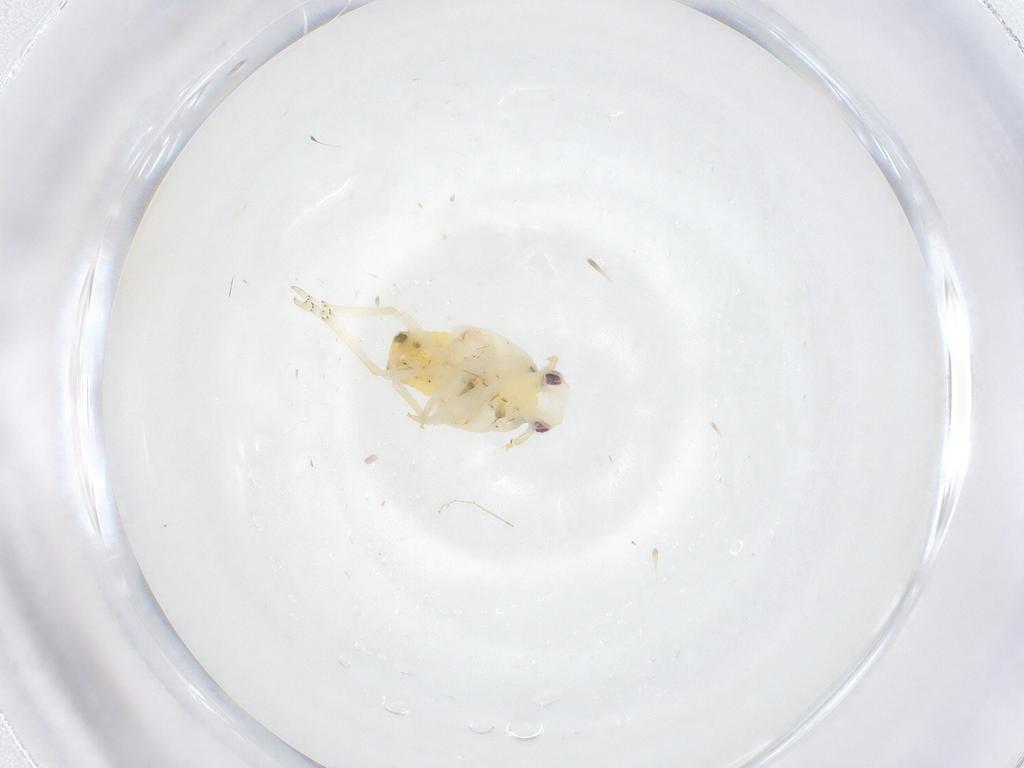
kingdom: Animalia
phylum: Arthropoda
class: Insecta
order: Hemiptera
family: Flatidae
